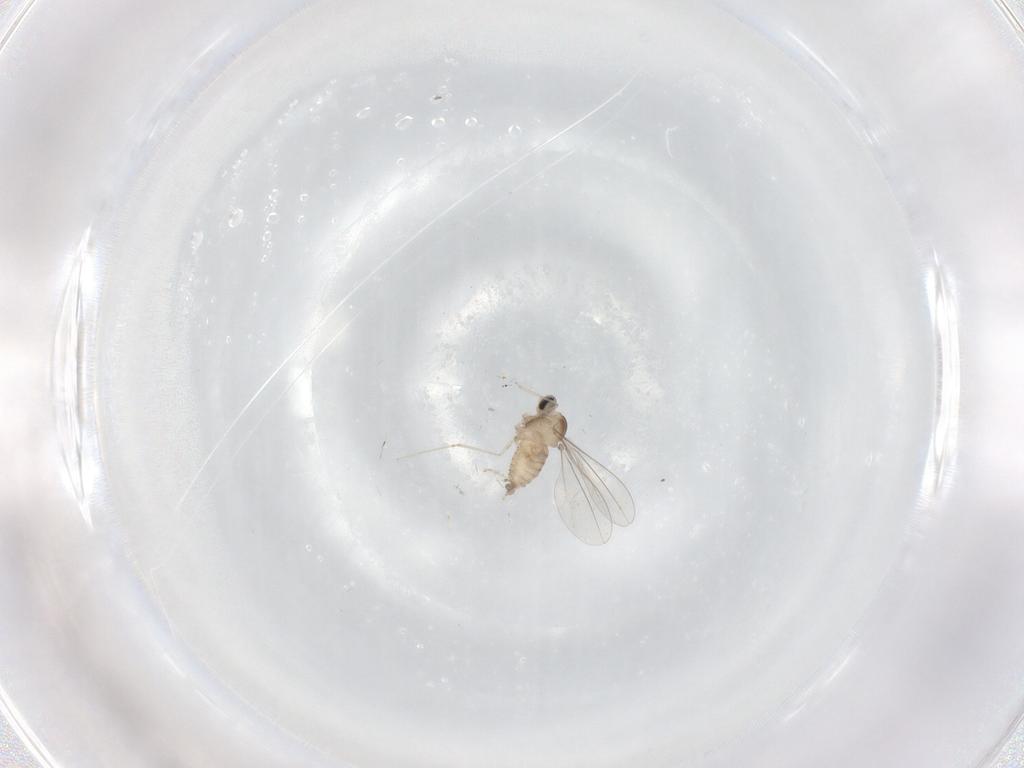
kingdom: Animalia
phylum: Arthropoda
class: Insecta
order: Diptera
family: Cecidomyiidae
